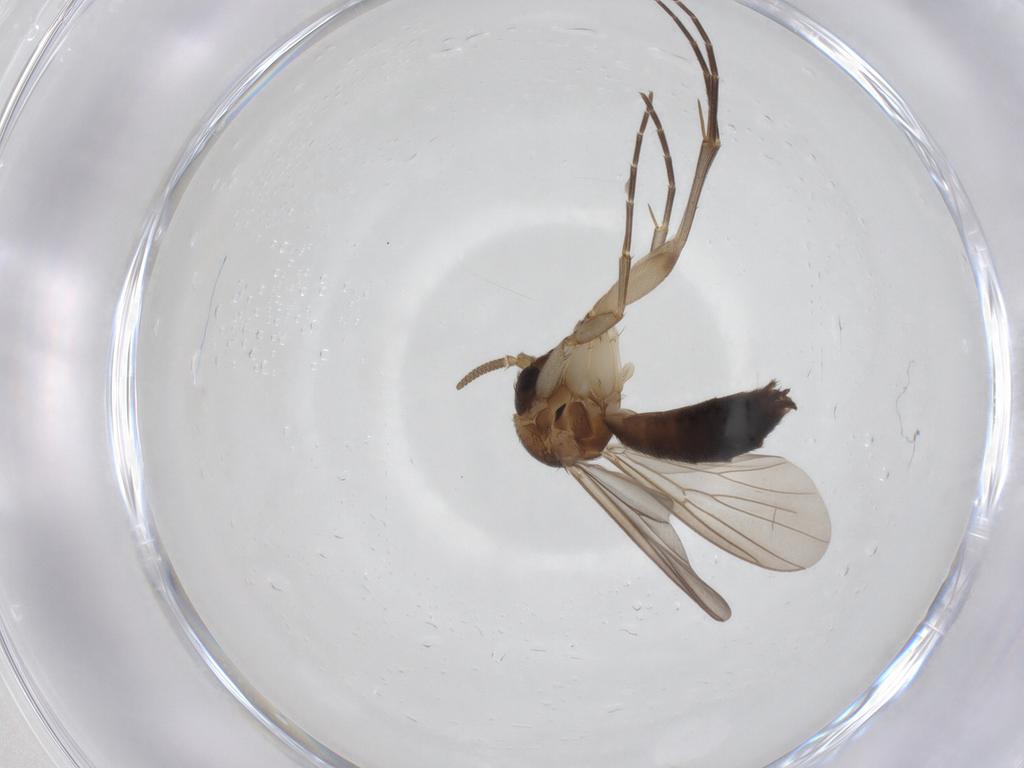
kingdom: Animalia
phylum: Arthropoda
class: Insecta
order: Diptera
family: Mycetophilidae
